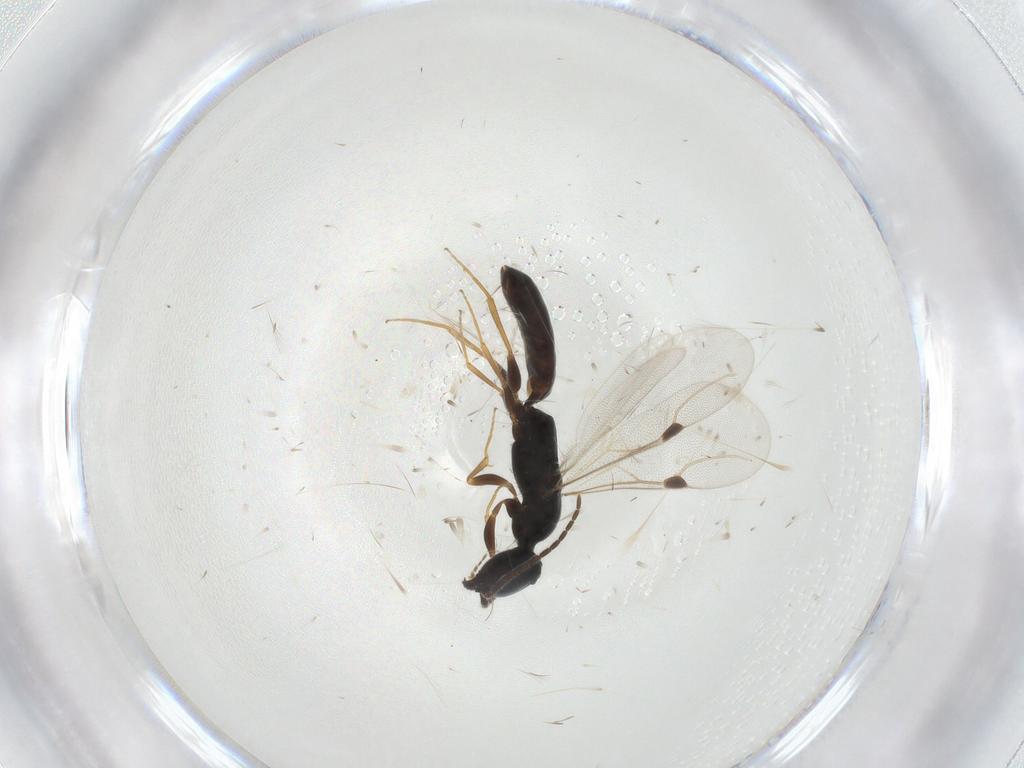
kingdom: Animalia
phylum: Arthropoda
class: Insecta
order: Hymenoptera
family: Bethylidae
